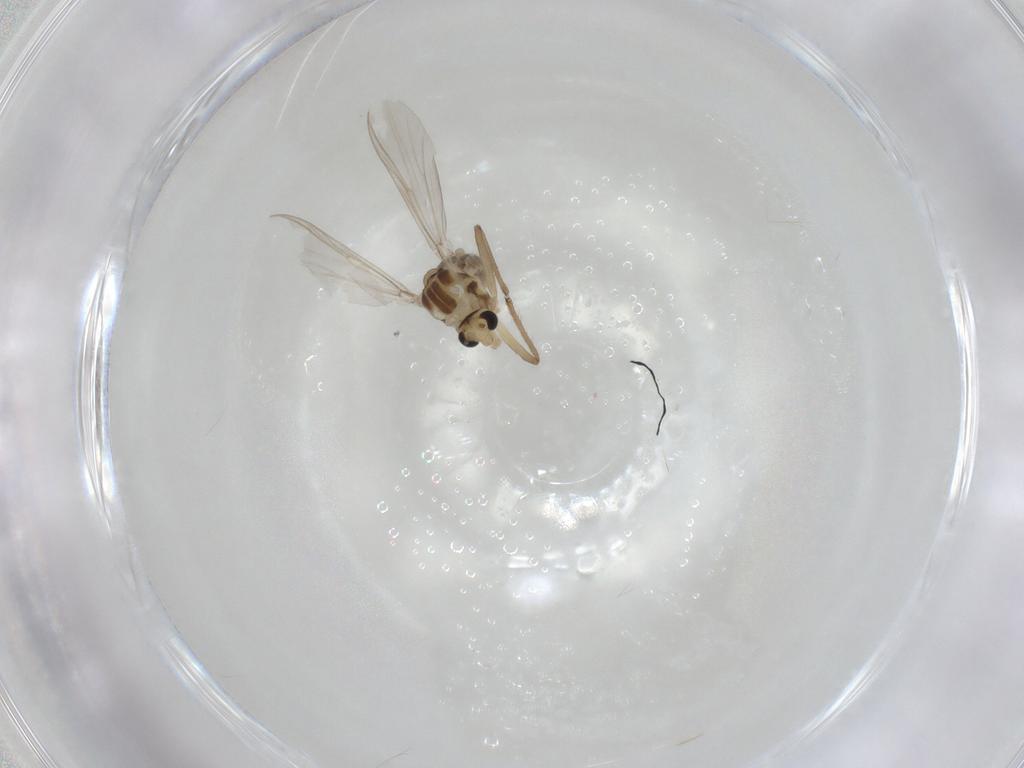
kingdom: Animalia
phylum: Arthropoda
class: Insecta
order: Diptera
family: Chironomidae
